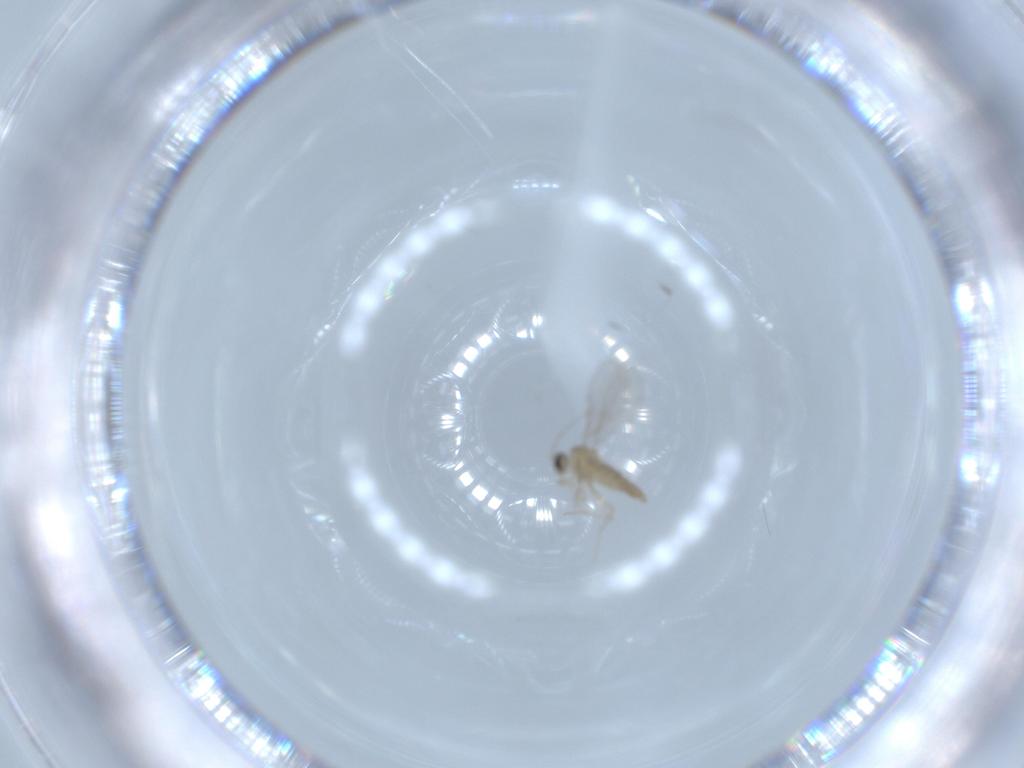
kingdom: Animalia
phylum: Arthropoda
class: Insecta
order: Diptera
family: Cecidomyiidae
